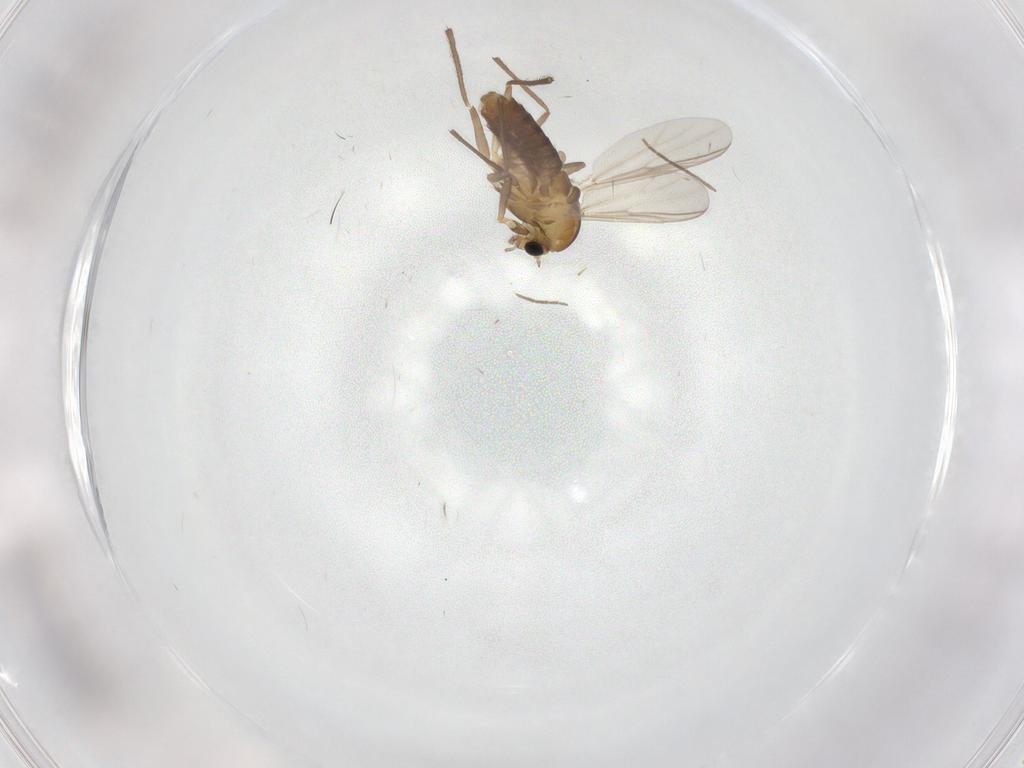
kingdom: Animalia
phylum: Arthropoda
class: Insecta
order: Diptera
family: Chironomidae
